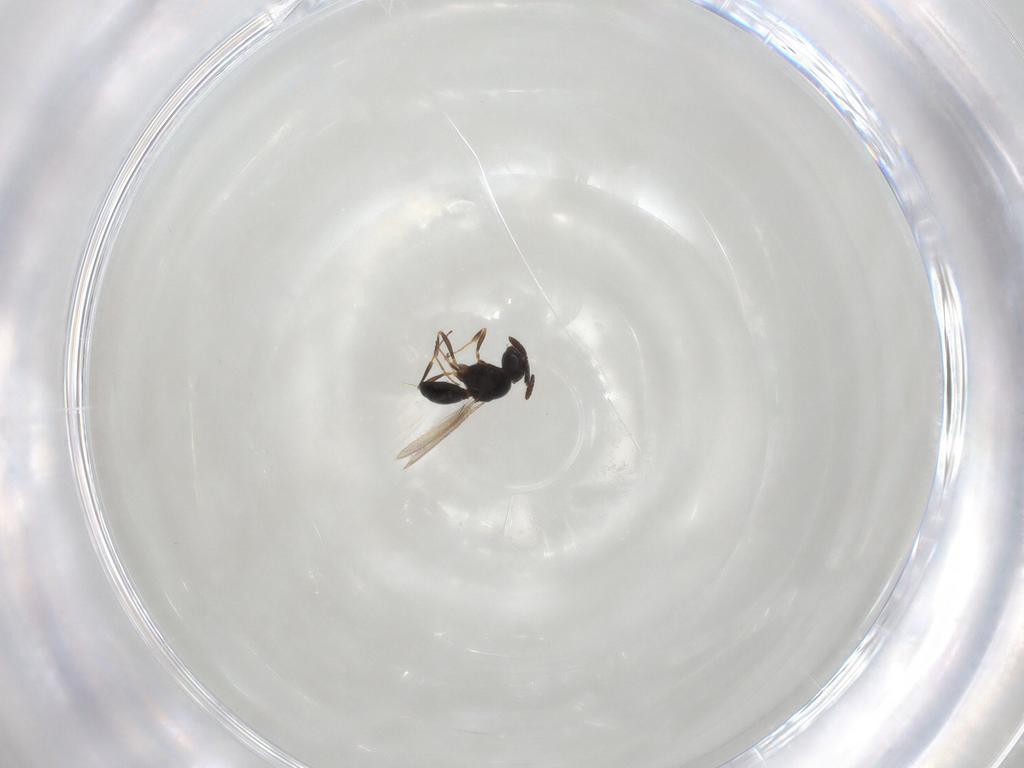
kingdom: Animalia
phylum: Arthropoda
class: Insecta
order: Hymenoptera
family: Scelionidae
